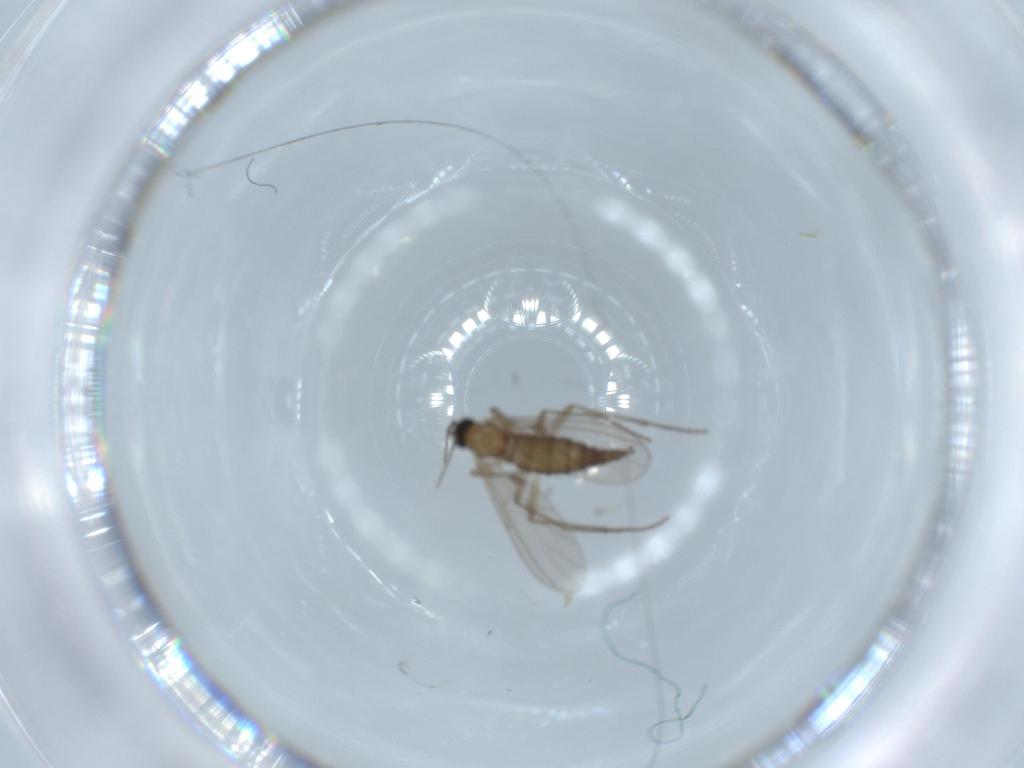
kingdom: Animalia
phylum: Arthropoda
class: Insecta
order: Diptera
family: Sciaridae
